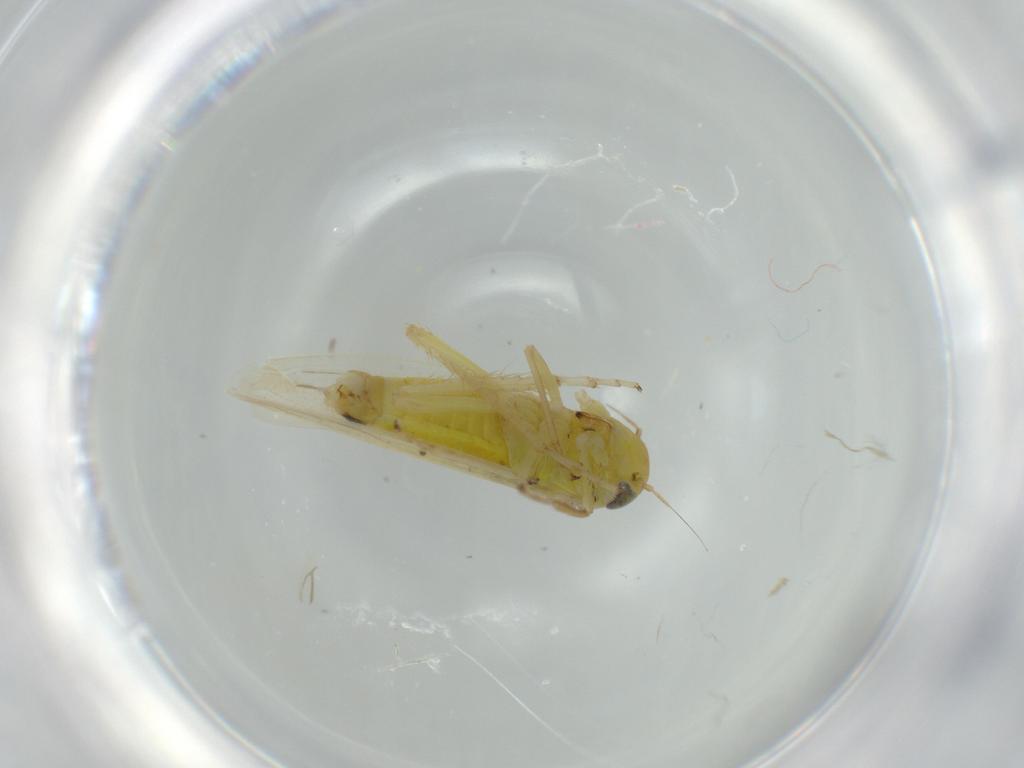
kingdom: Animalia
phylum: Arthropoda
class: Insecta
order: Hemiptera
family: Cicadellidae
